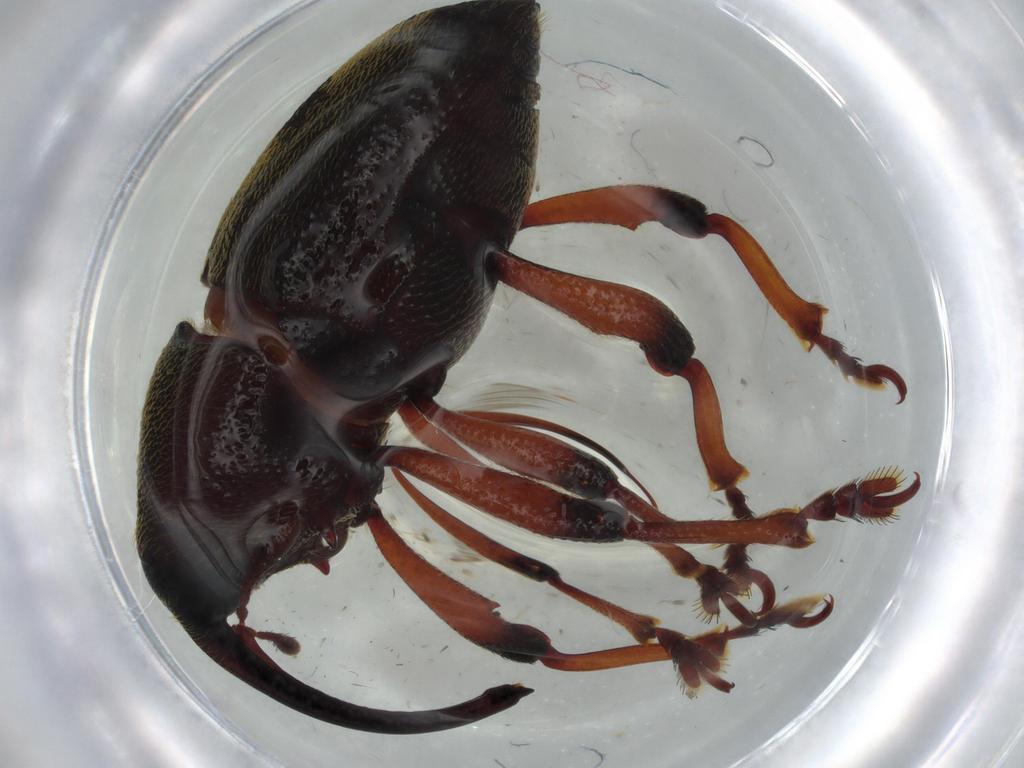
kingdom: Animalia
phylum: Arthropoda
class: Insecta
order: Coleoptera
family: Curculionidae
